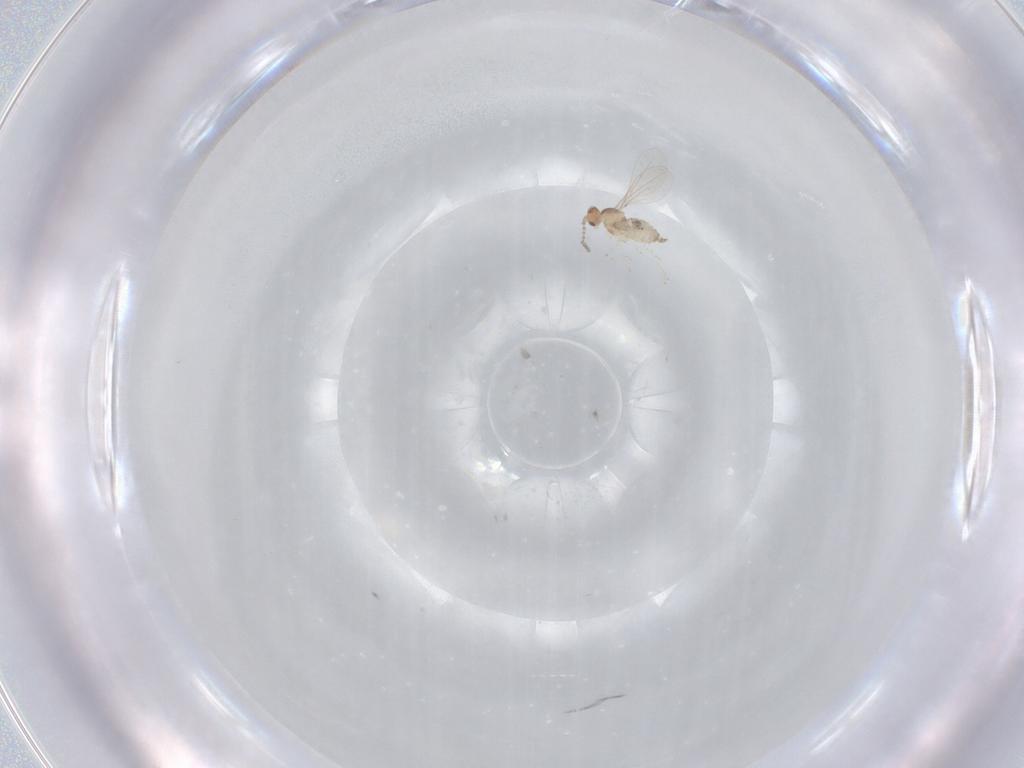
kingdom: Animalia
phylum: Arthropoda
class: Insecta
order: Diptera
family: Cecidomyiidae
